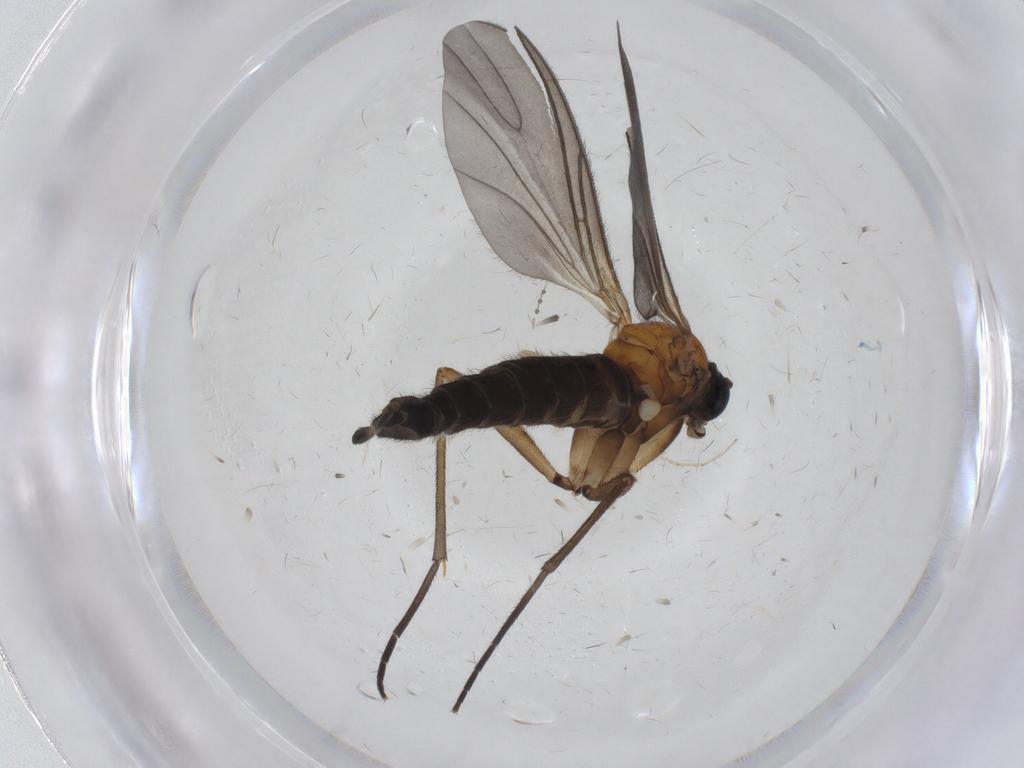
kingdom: Animalia
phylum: Arthropoda
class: Insecta
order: Diptera
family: Sciaridae
